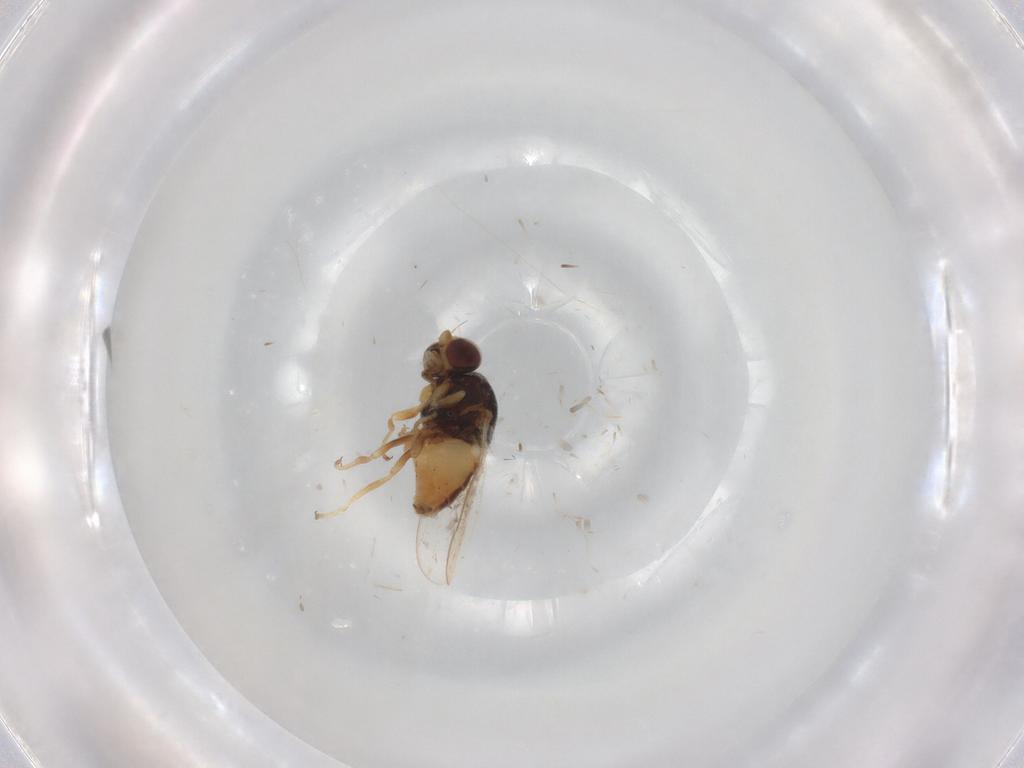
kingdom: Animalia
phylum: Arthropoda
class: Insecta
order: Diptera
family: Chloropidae
